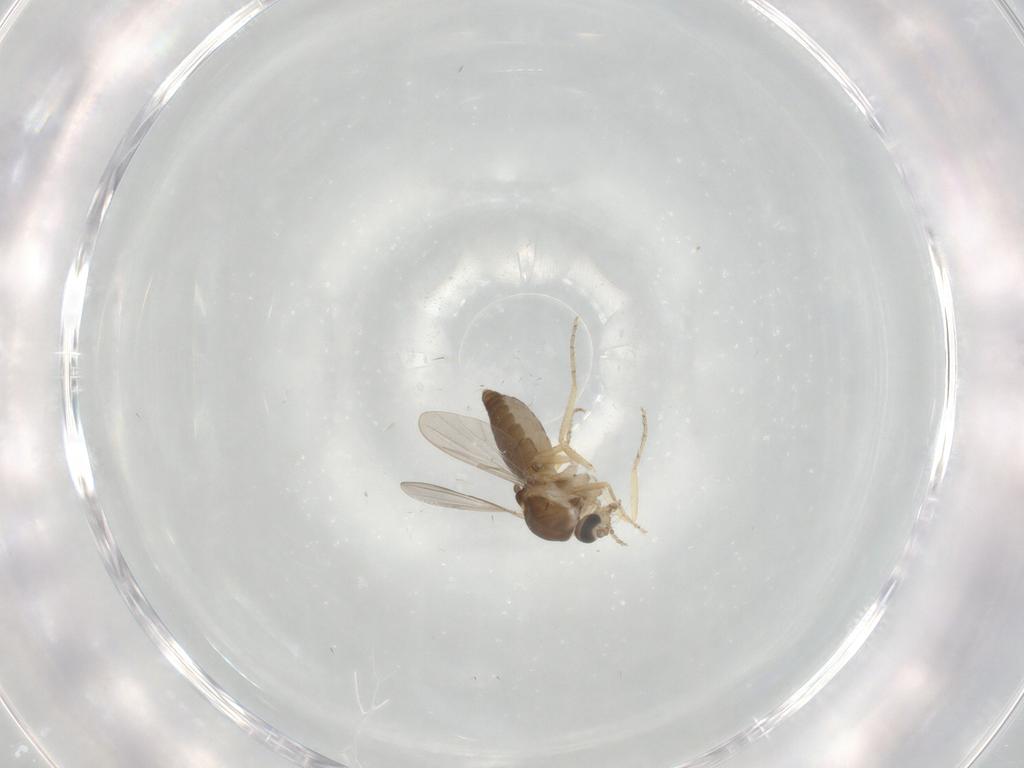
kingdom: Animalia
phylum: Arthropoda
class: Insecta
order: Diptera
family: Ceratopogonidae
